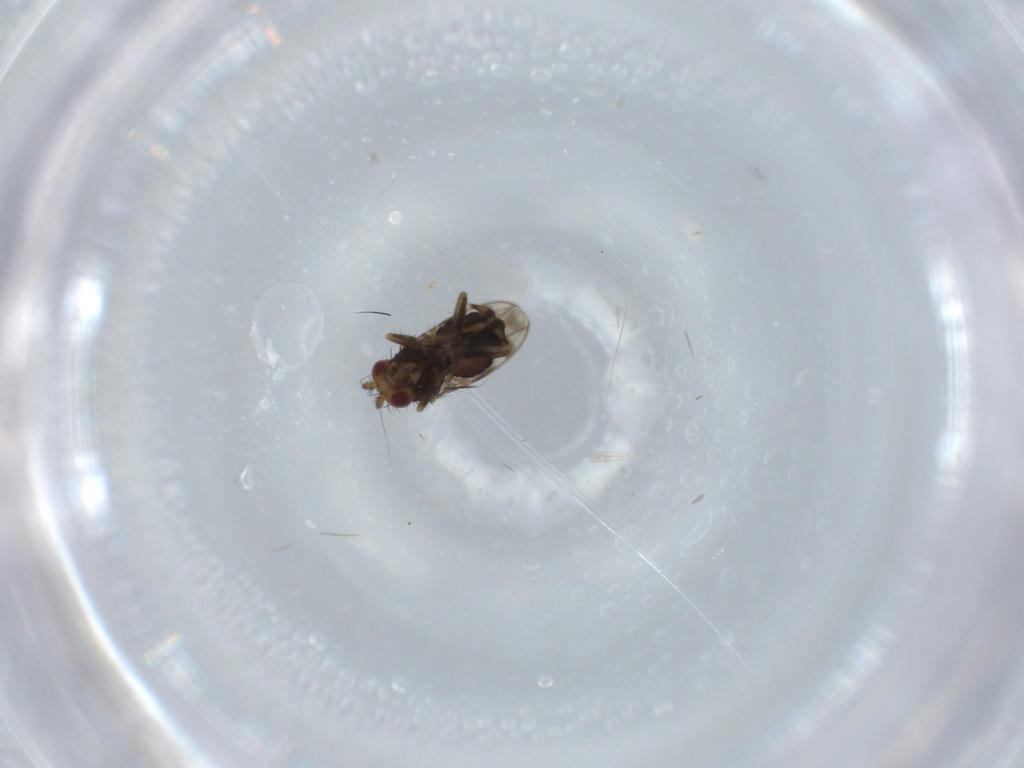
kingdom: Animalia
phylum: Arthropoda
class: Insecta
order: Diptera
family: Sphaeroceridae
